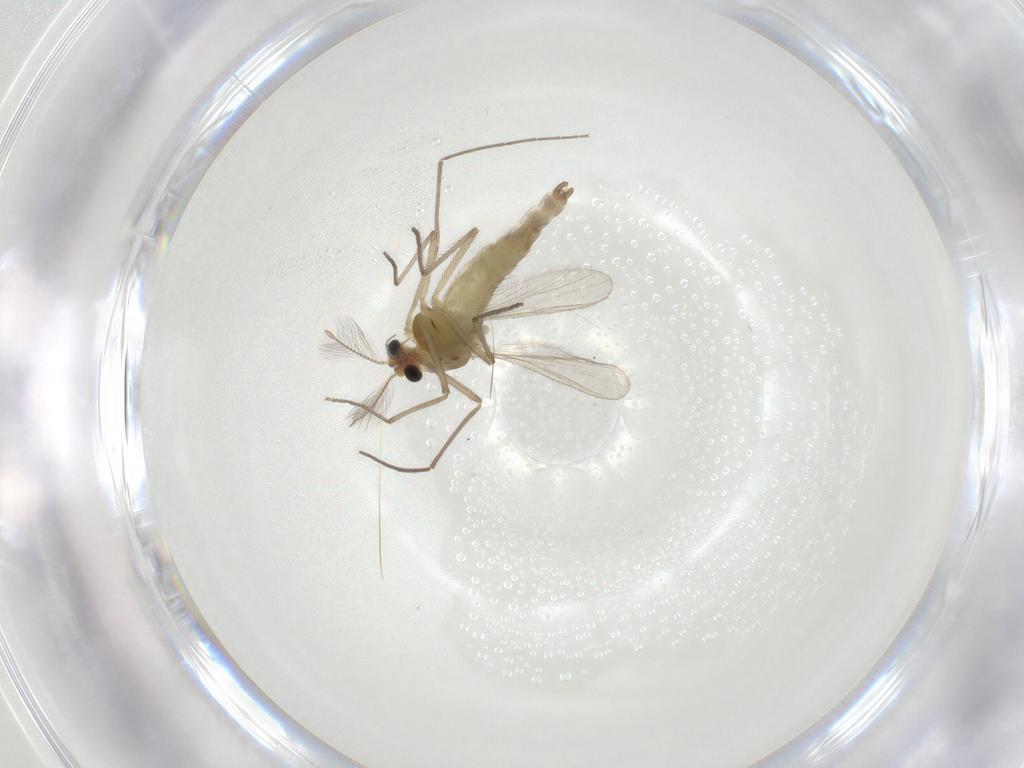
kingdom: Animalia
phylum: Arthropoda
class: Insecta
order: Diptera
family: Chironomidae
